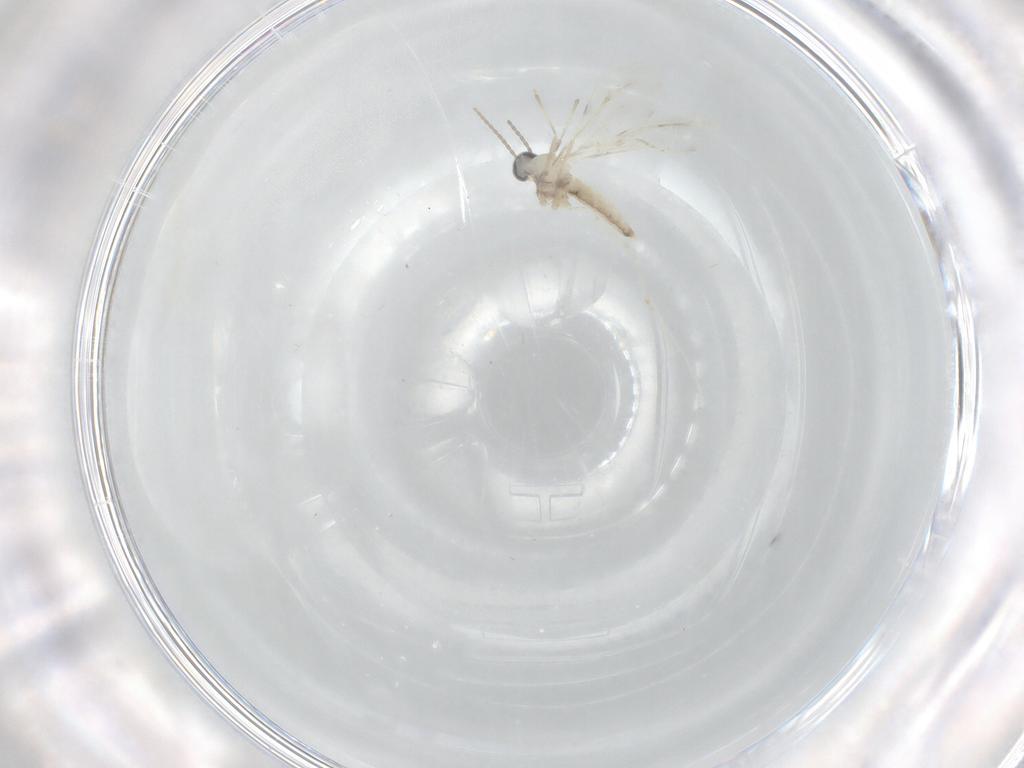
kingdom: Animalia
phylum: Arthropoda
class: Insecta
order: Diptera
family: Cecidomyiidae
